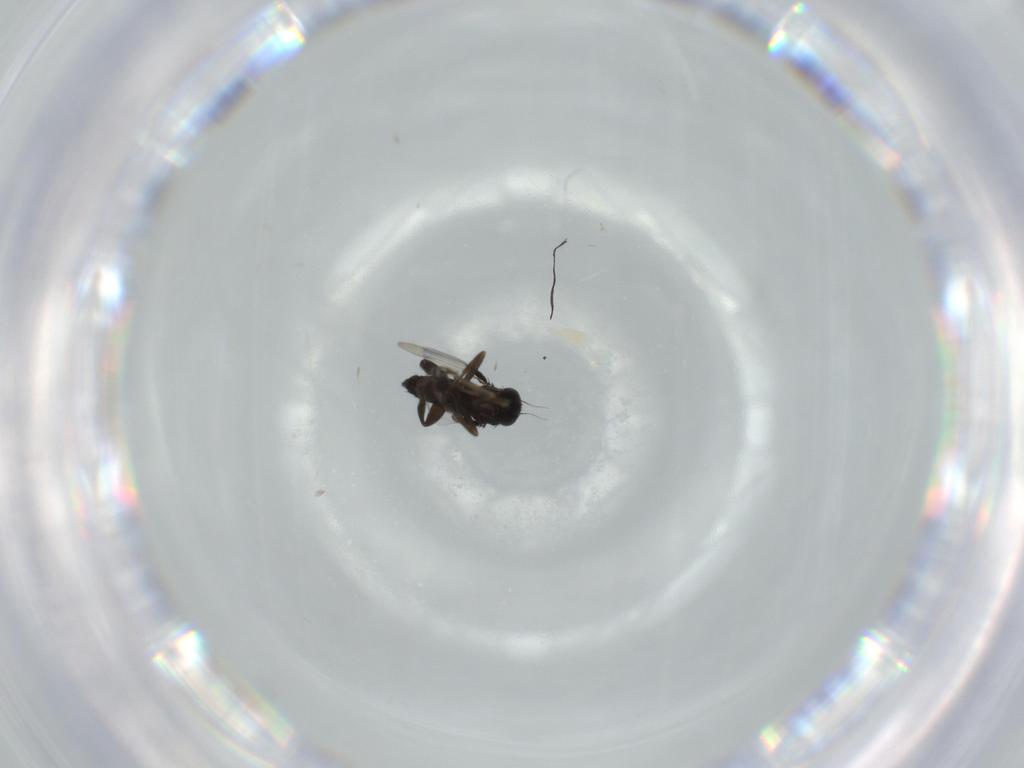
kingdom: Animalia
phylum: Arthropoda
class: Insecta
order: Diptera
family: Phoridae
